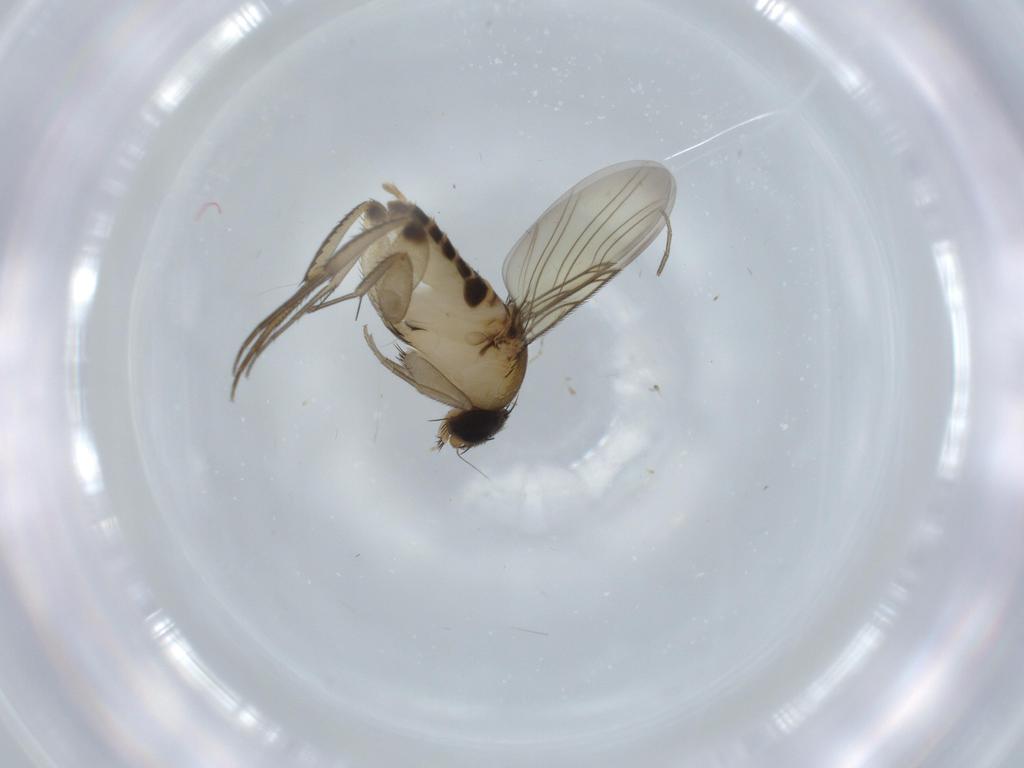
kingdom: Animalia
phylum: Arthropoda
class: Insecta
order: Diptera
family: Phoridae
